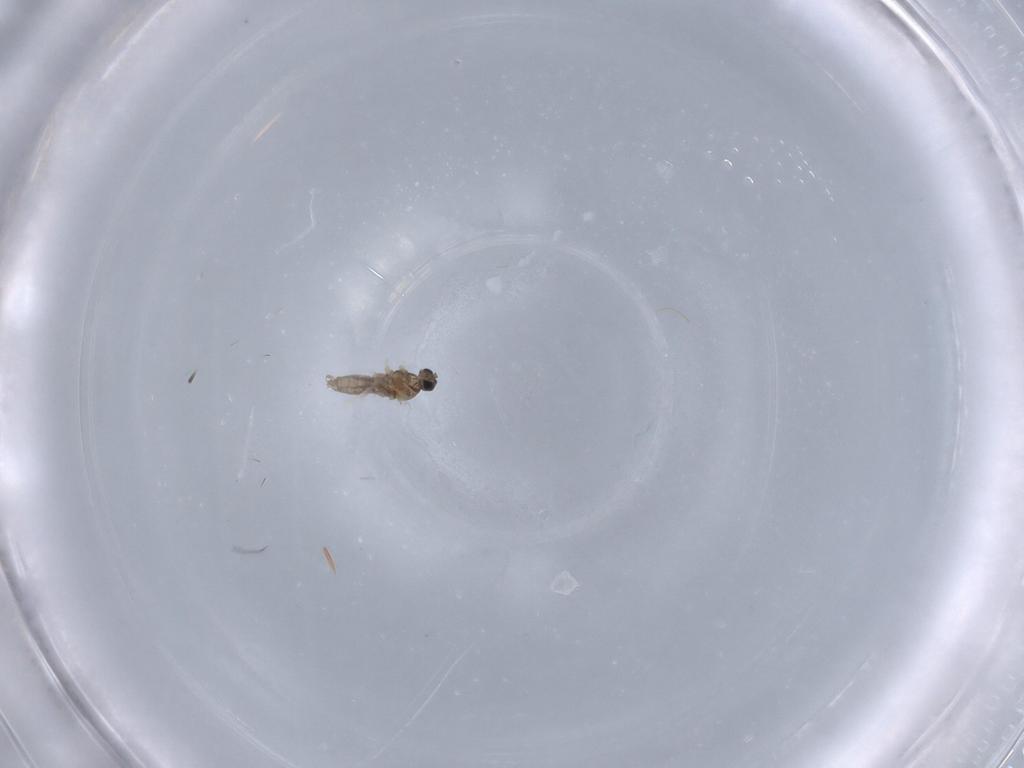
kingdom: Animalia
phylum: Arthropoda
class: Insecta
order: Diptera
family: Cecidomyiidae
